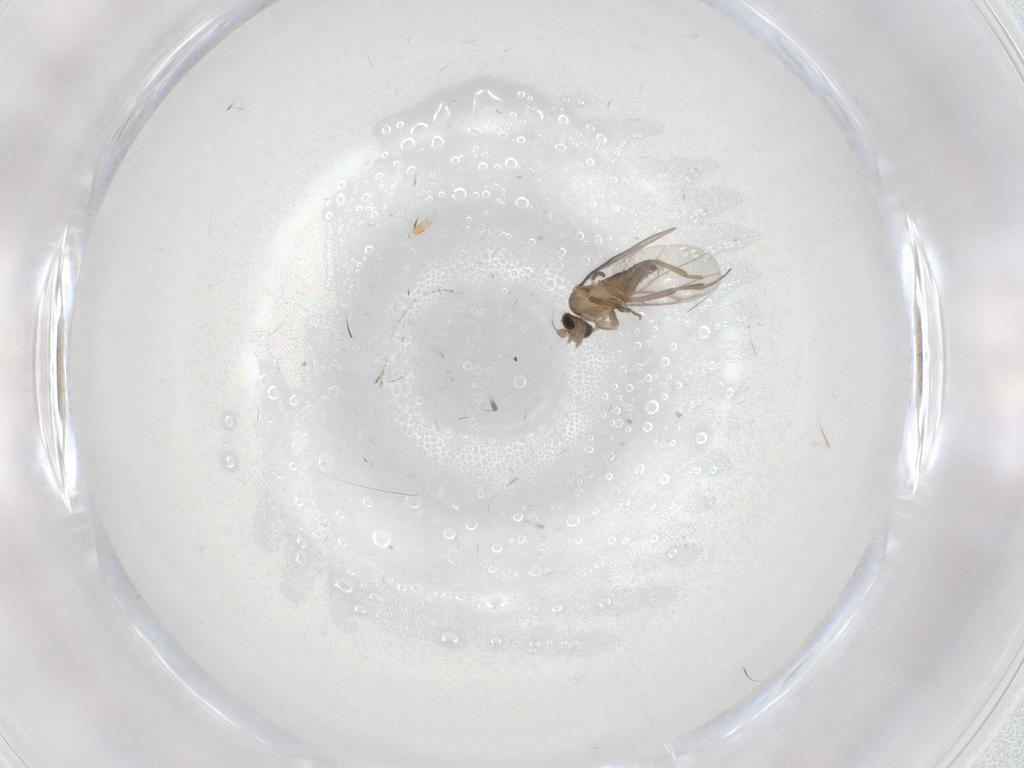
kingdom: Animalia
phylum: Arthropoda
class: Insecta
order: Diptera
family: Cecidomyiidae
